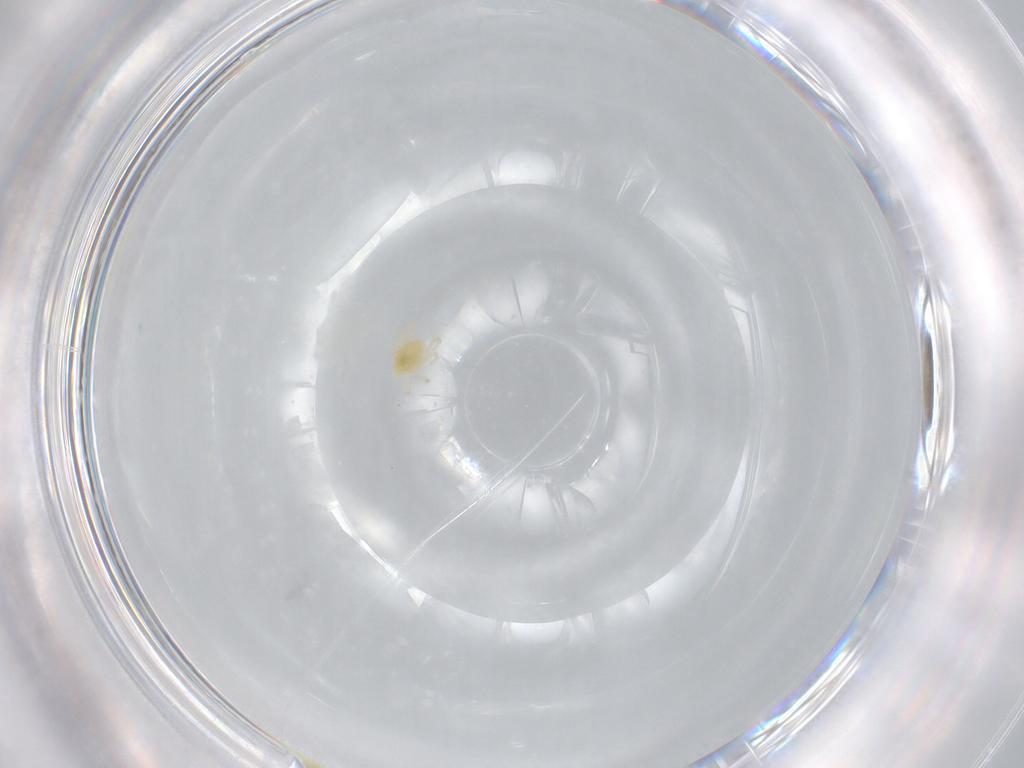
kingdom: Animalia
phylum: Arthropoda
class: Arachnida
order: Trombidiformes
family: Cunaxidae
